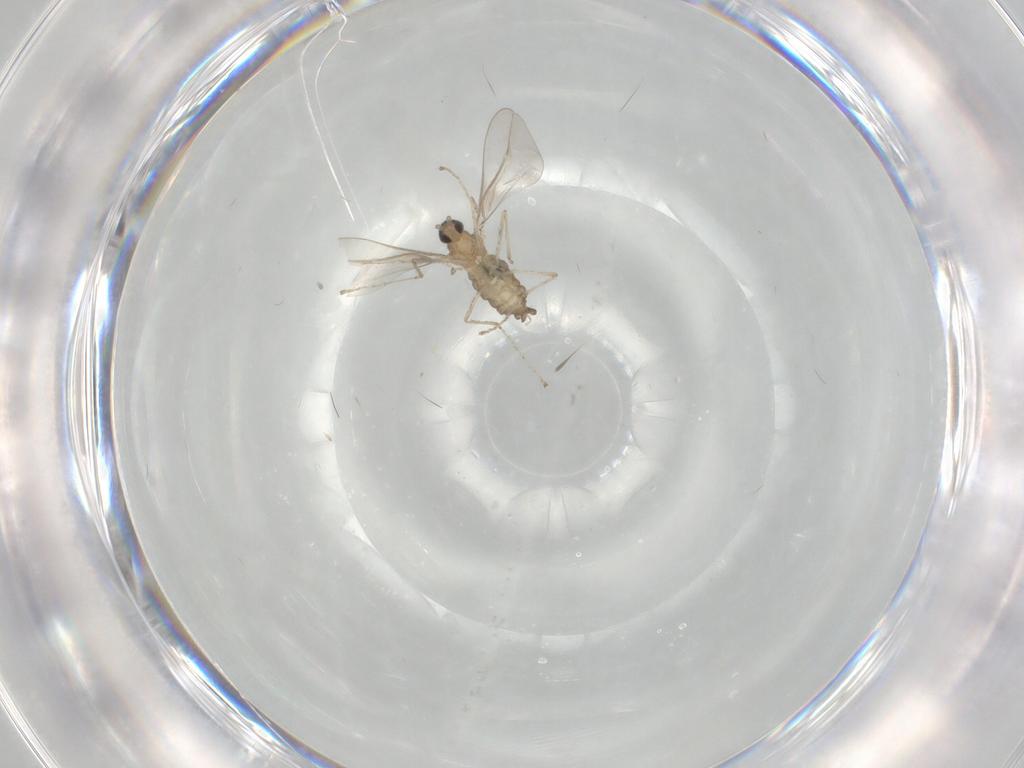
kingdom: Animalia
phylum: Arthropoda
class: Insecta
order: Diptera
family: Cecidomyiidae
